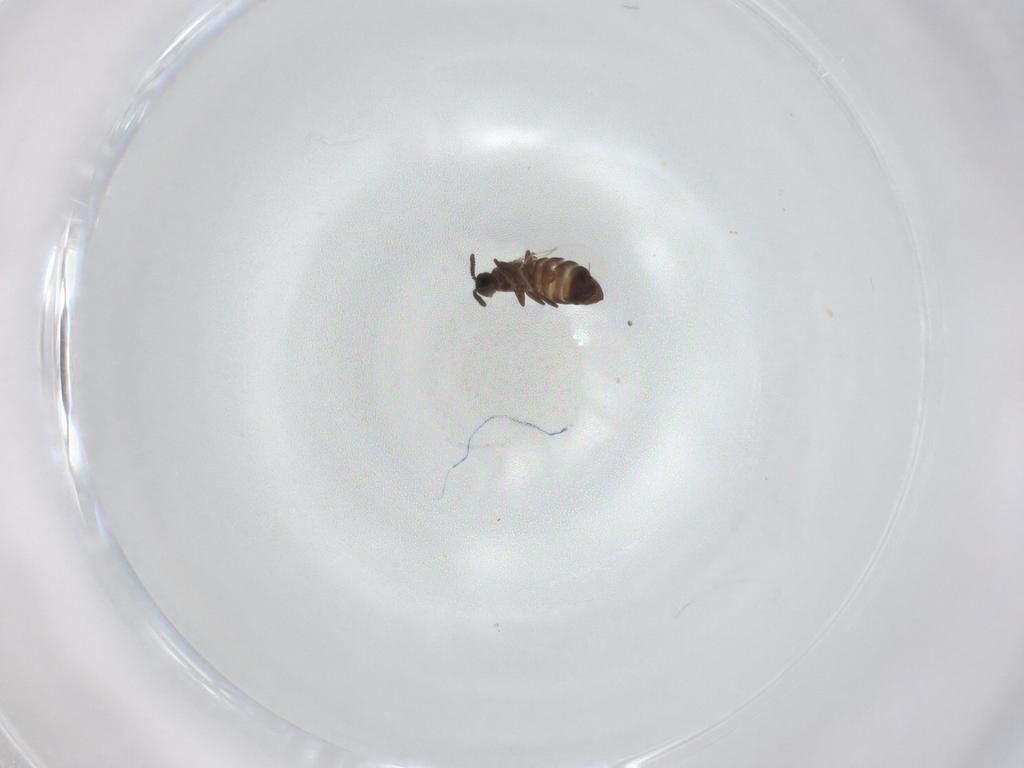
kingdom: Animalia
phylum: Arthropoda
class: Insecta
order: Diptera
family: Scatopsidae
